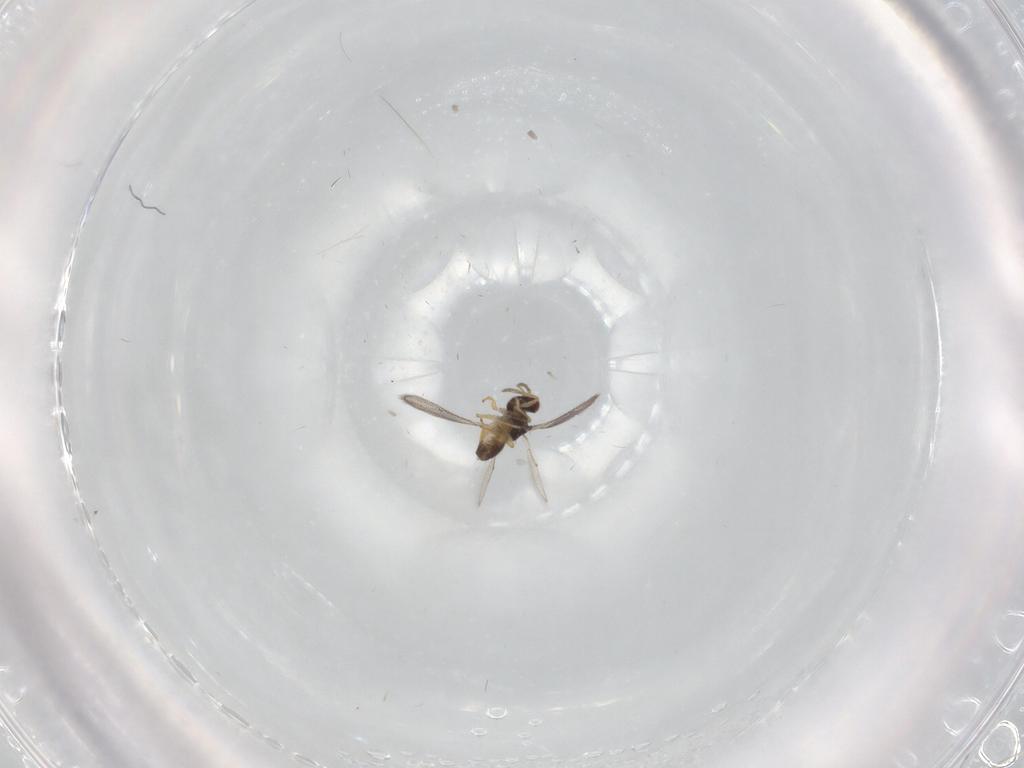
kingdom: Animalia
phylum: Arthropoda
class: Insecta
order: Hymenoptera
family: Eulophidae
